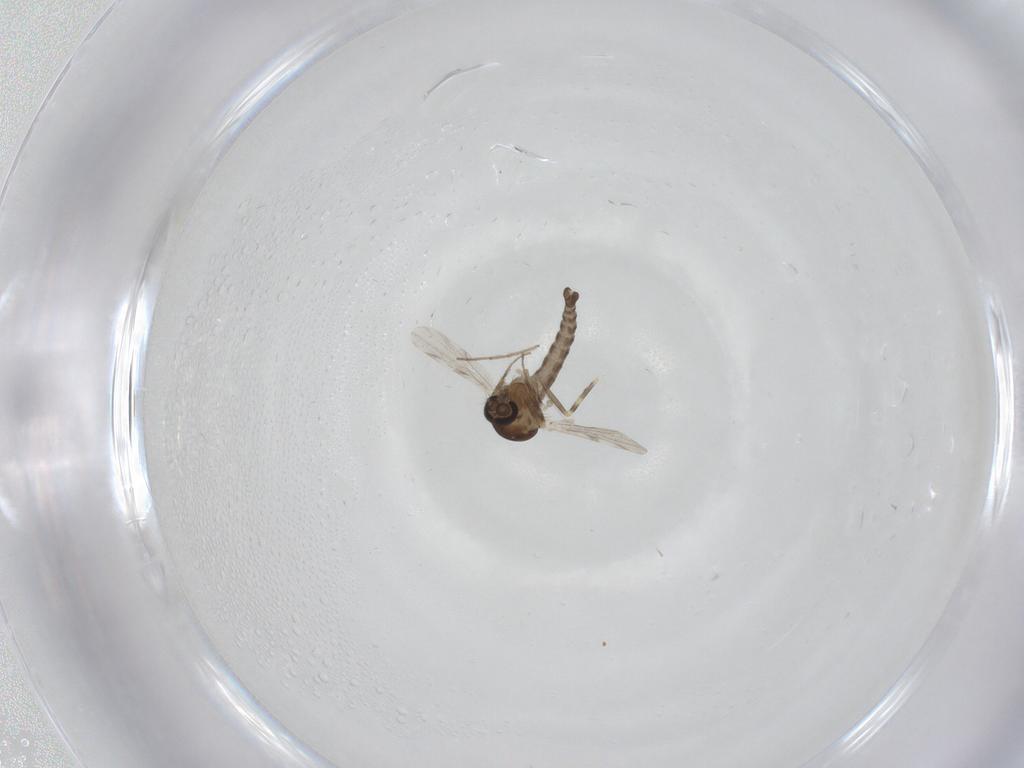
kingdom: Animalia
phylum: Arthropoda
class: Insecta
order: Diptera
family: Ceratopogonidae
